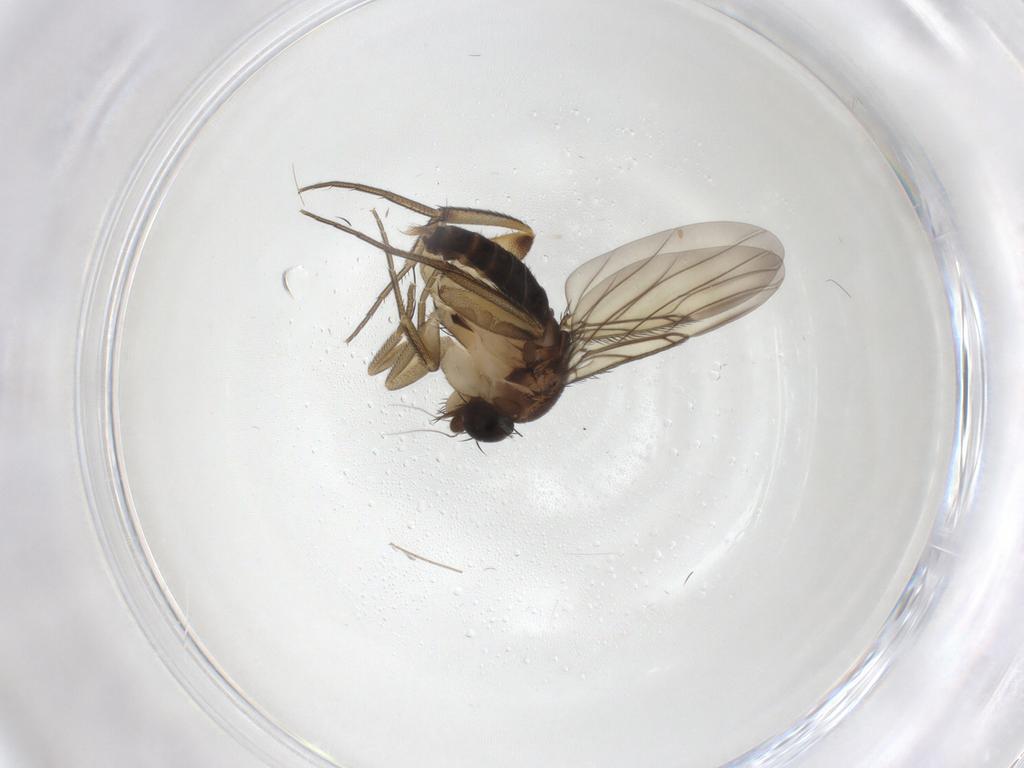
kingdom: Animalia
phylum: Arthropoda
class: Insecta
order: Diptera
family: Phoridae
